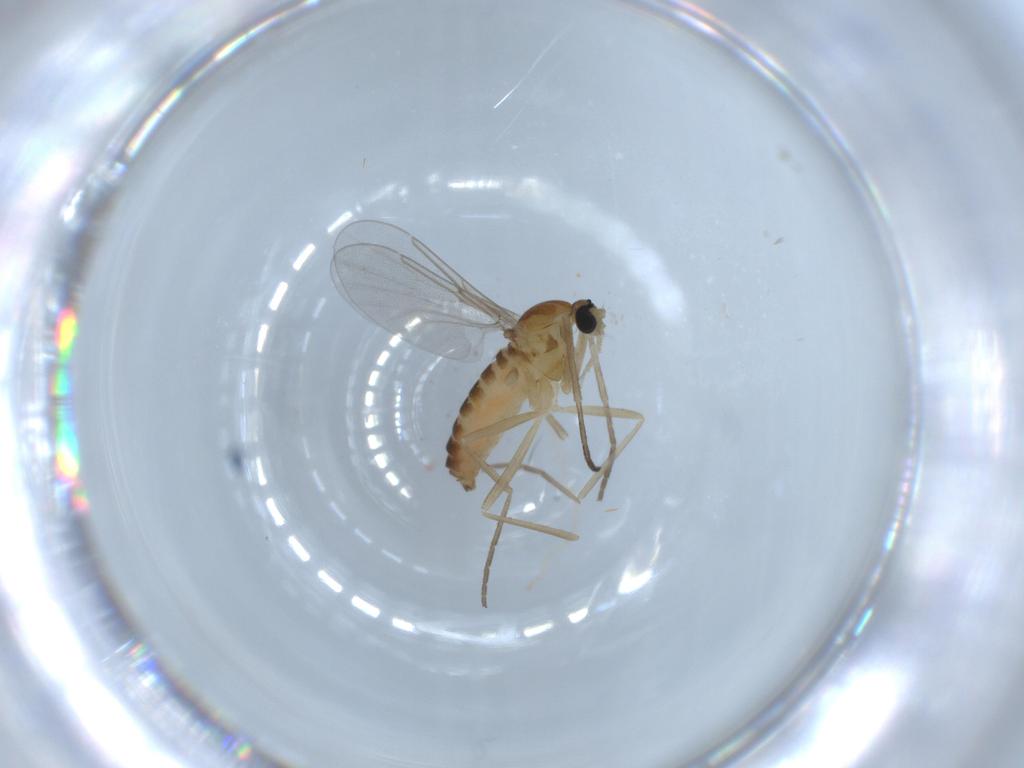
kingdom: Animalia
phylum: Arthropoda
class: Insecta
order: Diptera
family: Cecidomyiidae
